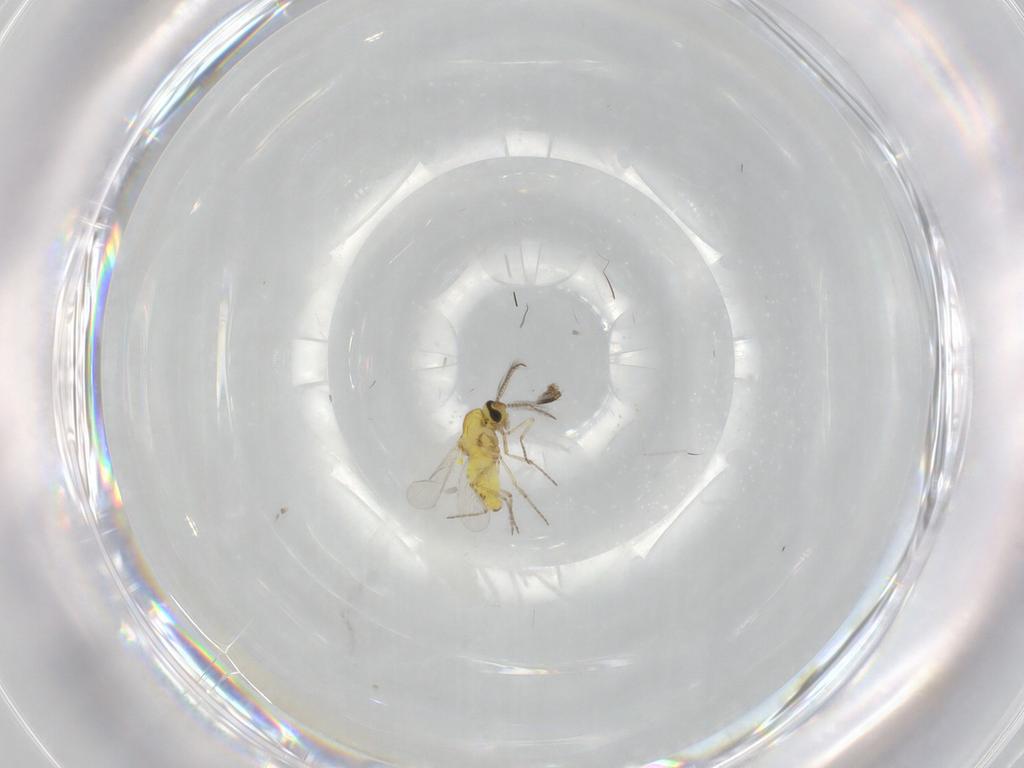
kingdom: Animalia
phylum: Arthropoda
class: Insecta
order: Diptera
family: Ceratopogonidae
